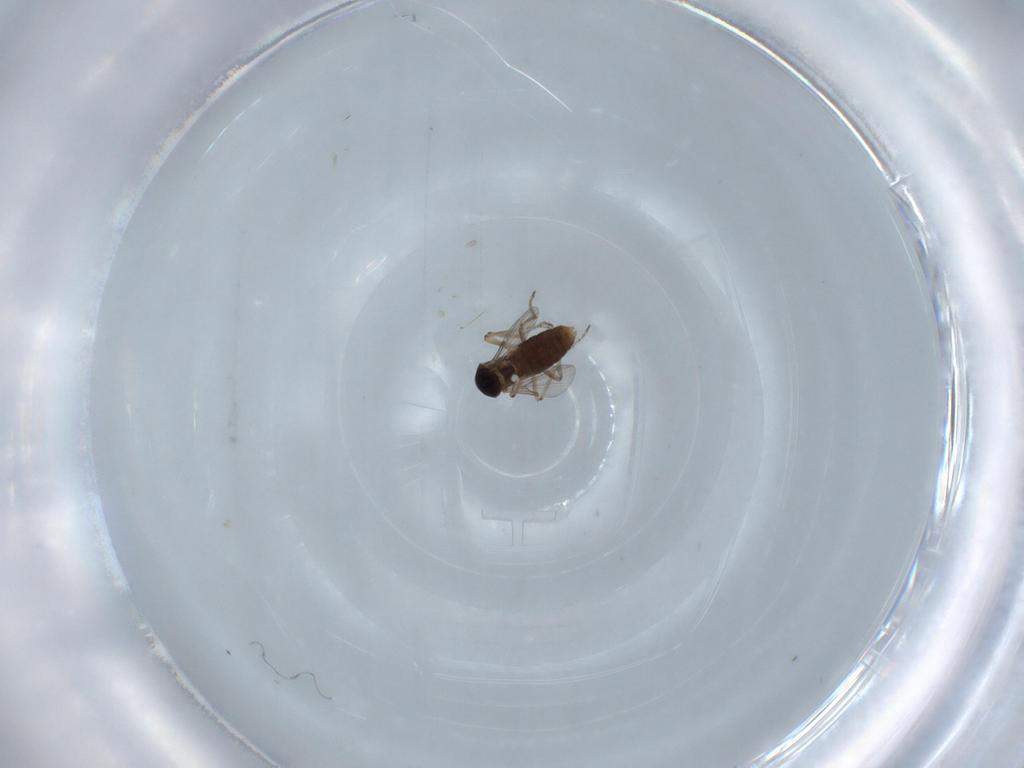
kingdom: Animalia
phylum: Arthropoda
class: Insecta
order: Diptera
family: Ceratopogonidae
